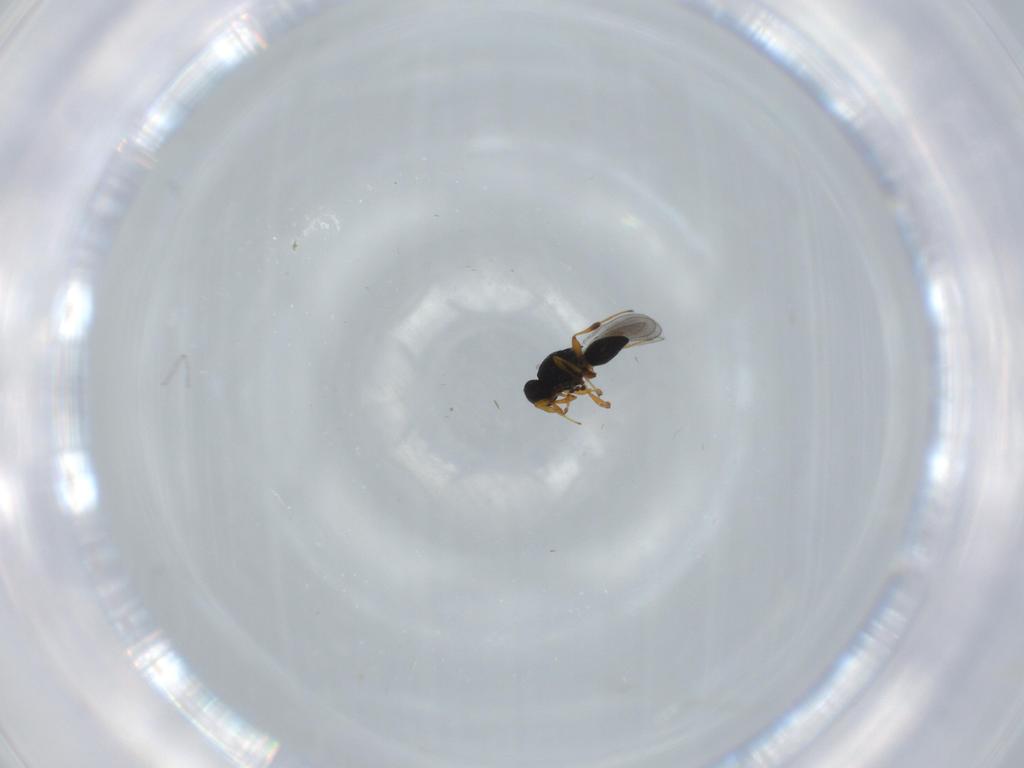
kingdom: Animalia
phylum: Arthropoda
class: Insecta
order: Hymenoptera
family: Platygastridae
